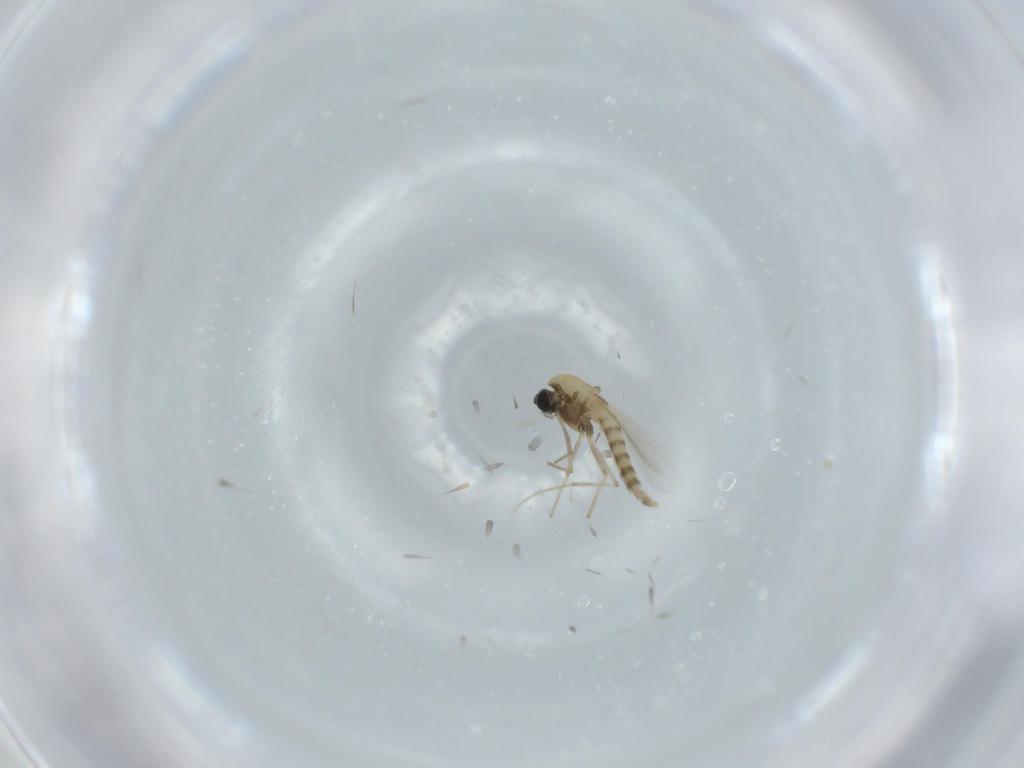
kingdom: Animalia
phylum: Arthropoda
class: Insecta
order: Diptera
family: Chironomidae
